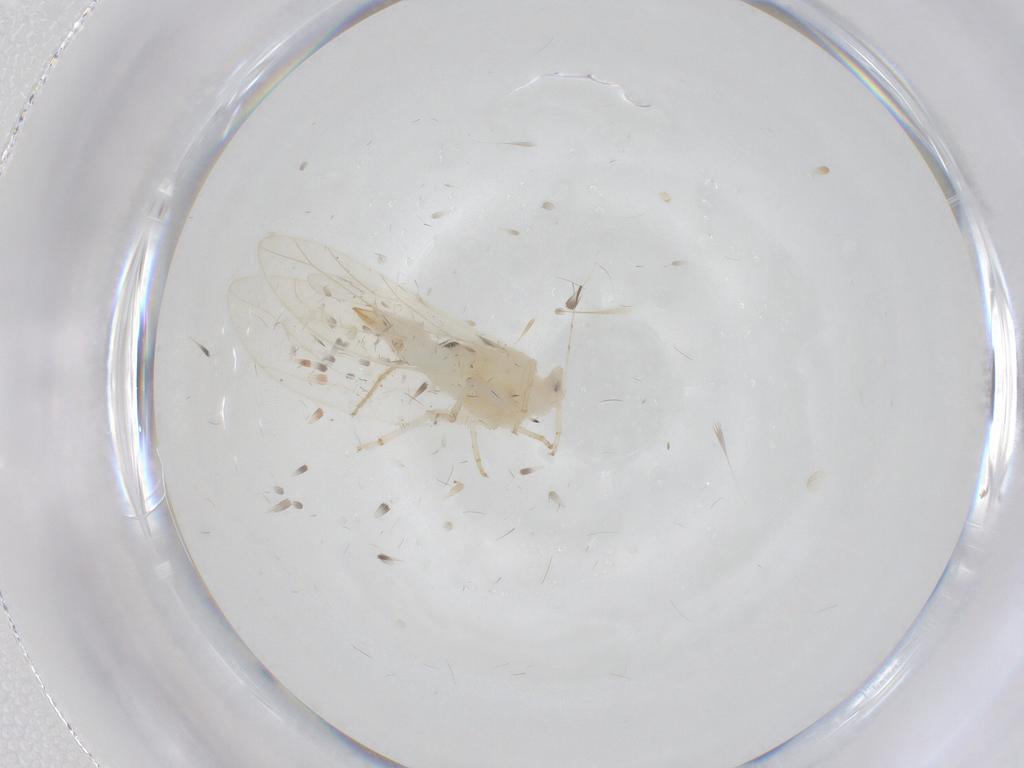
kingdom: Animalia
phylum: Arthropoda
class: Insecta
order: Diptera
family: Chironomidae
